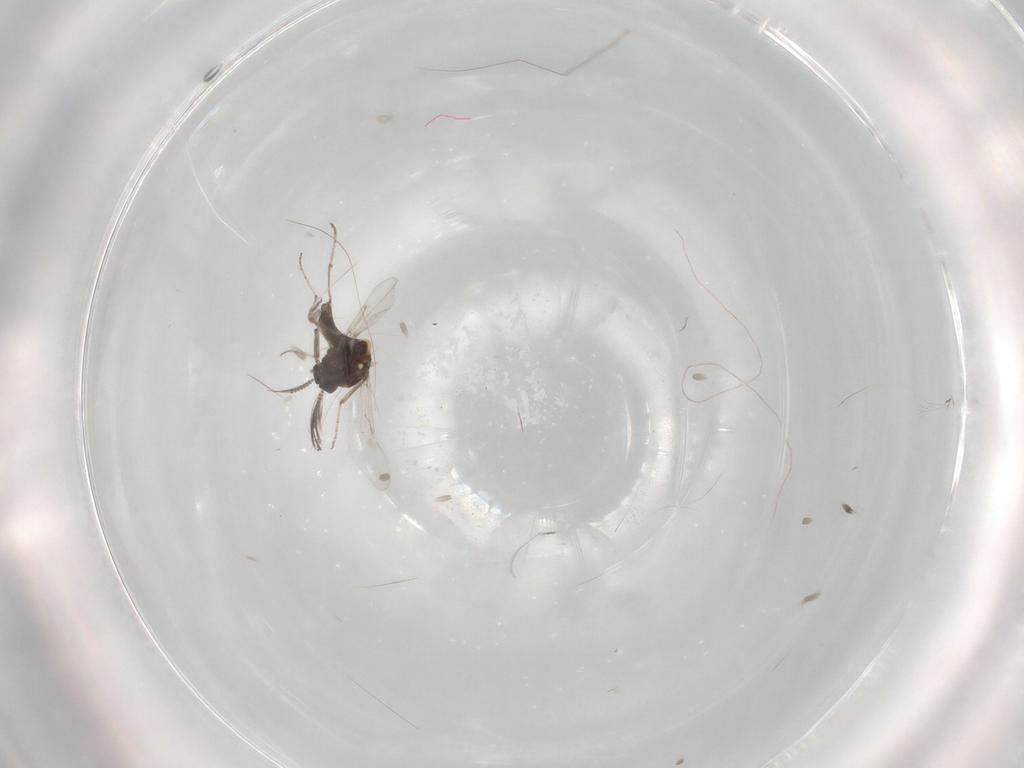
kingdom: Animalia
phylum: Arthropoda
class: Insecta
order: Diptera
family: Ceratopogonidae
